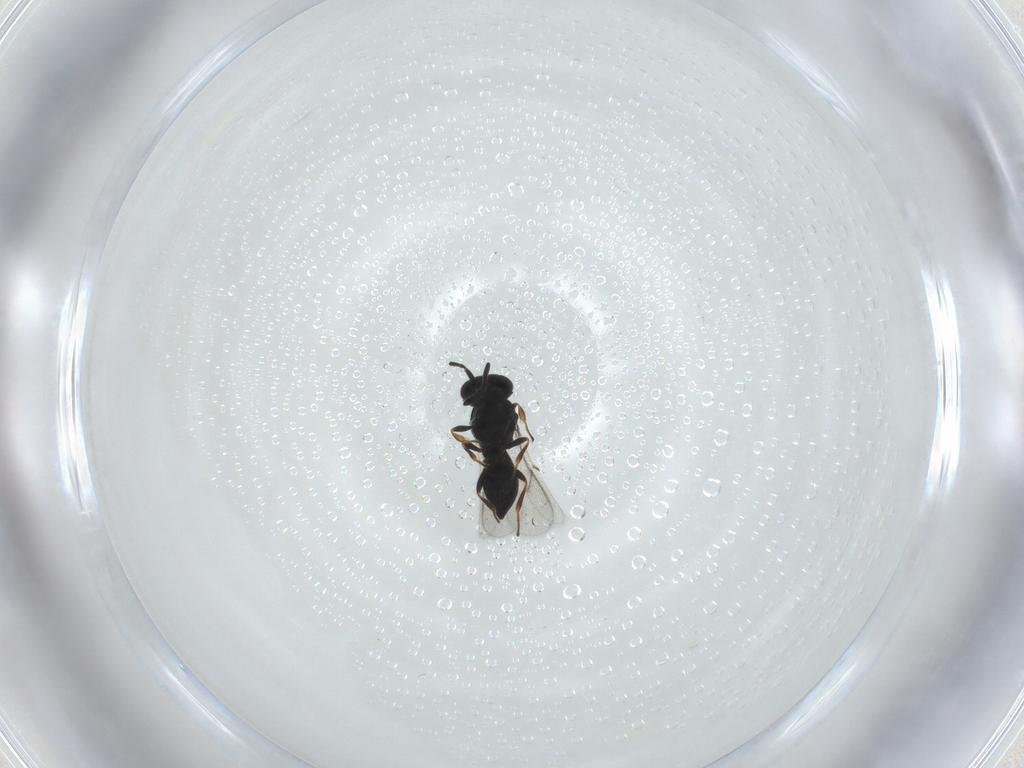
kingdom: Animalia
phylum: Arthropoda
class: Insecta
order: Hymenoptera
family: Scelionidae
